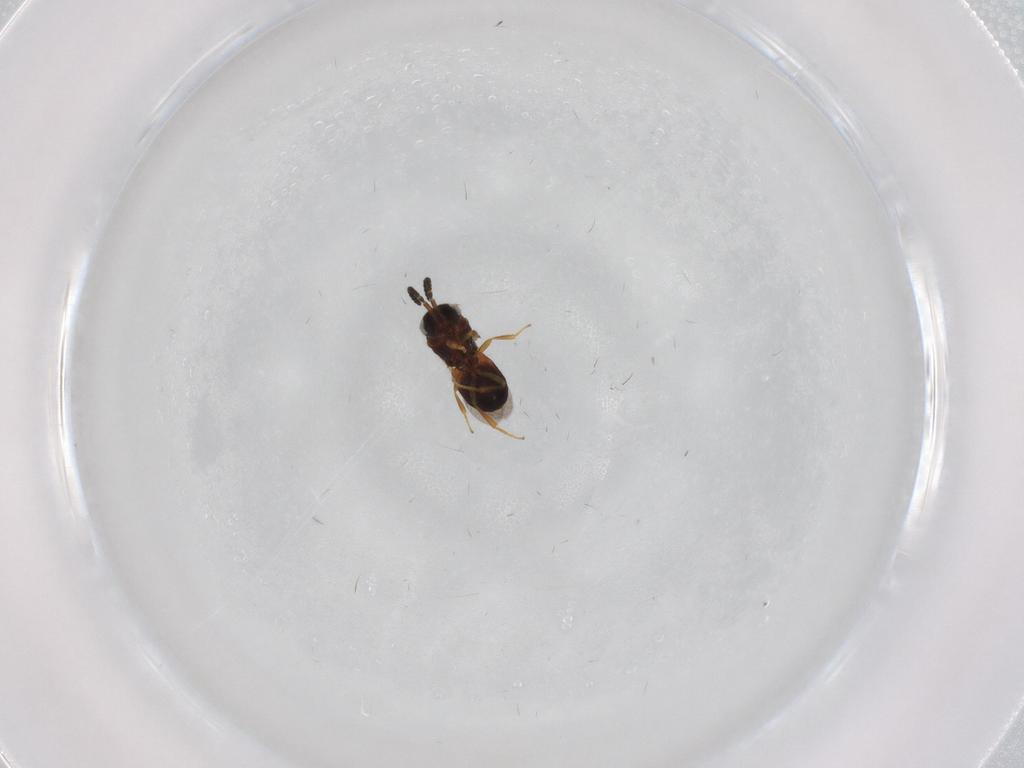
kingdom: Animalia
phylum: Arthropoda
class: Insecta
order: Hymenoptera
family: Scelionidae
